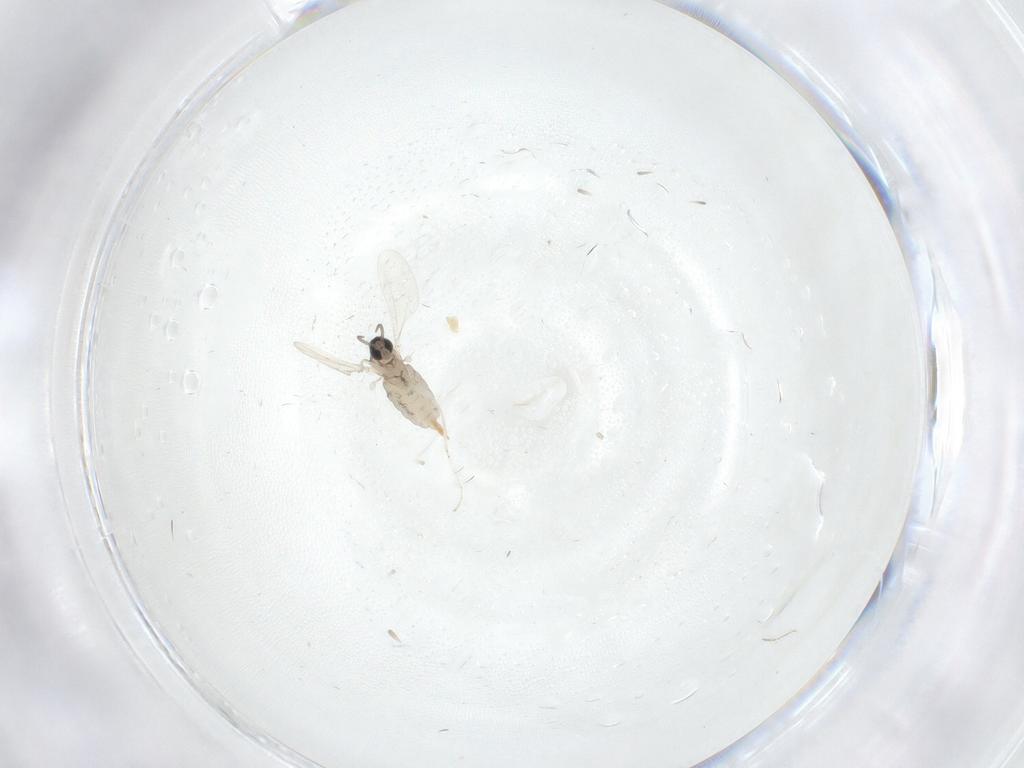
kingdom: Animalia
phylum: Arthropoda
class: Insecta
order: Diptera
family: Cecidomyiidae
